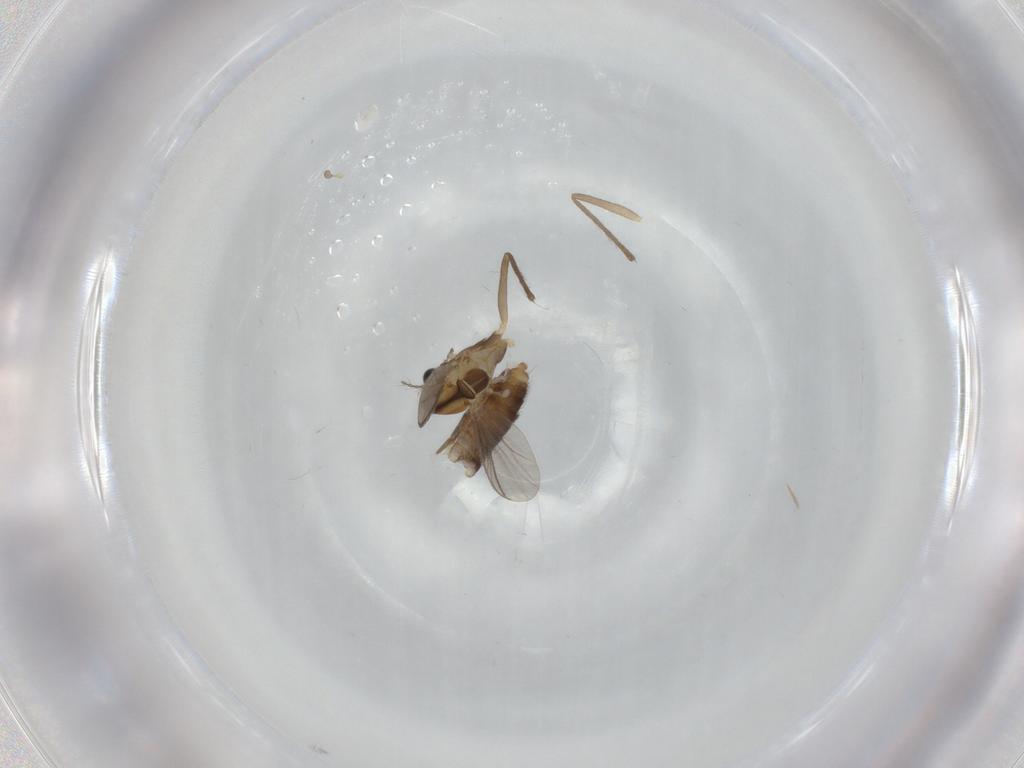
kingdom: Animalia
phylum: Arthropoda
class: Insecta
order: Diptera
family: Chironomidae
